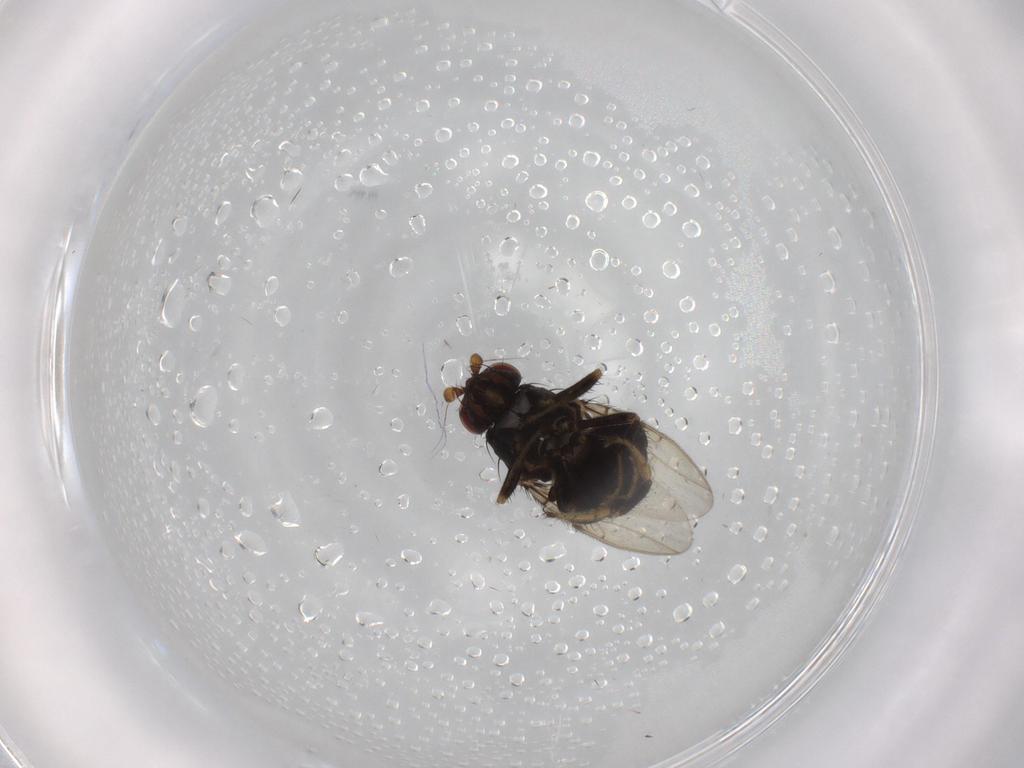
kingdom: Animalia
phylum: Arthropoda
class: Insecta
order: Diptera
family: Sphaeroceridae
